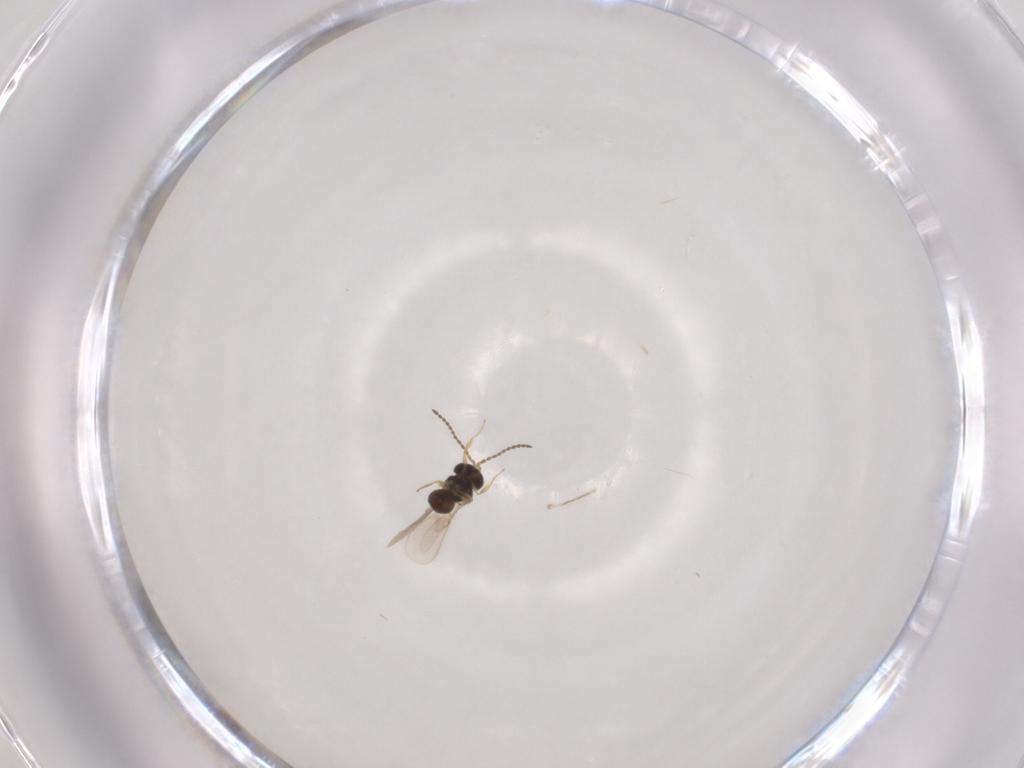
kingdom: Animalia
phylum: Arthropoda
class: Insecta
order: Hymenoptera
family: Scelionidae
